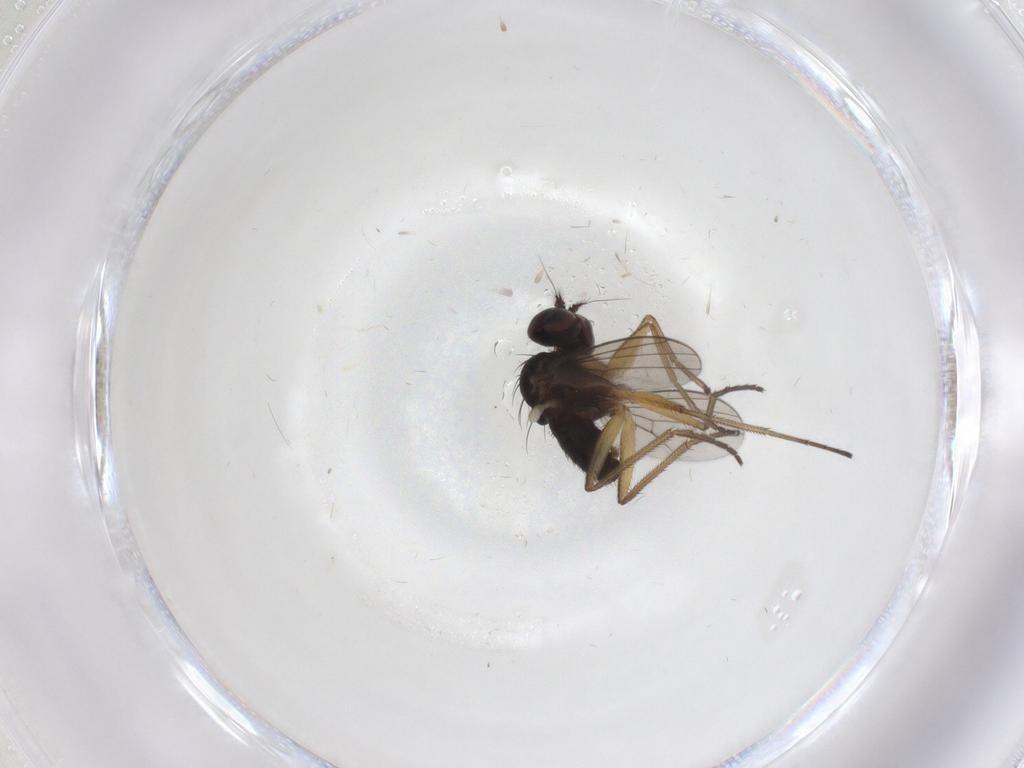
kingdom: Animalia
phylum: Arthropoda
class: Insecta
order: Diptera
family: Dolichopodidae
